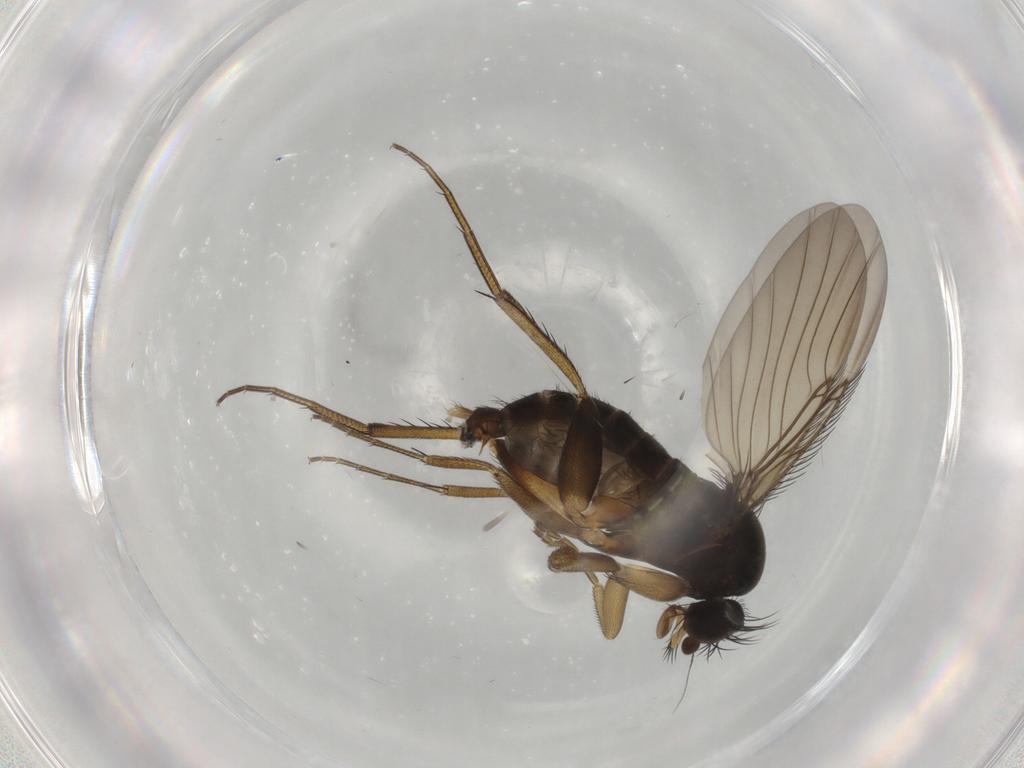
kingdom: Animalia
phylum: Arthropoda
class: Insecta
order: Diptera
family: Phoridae
